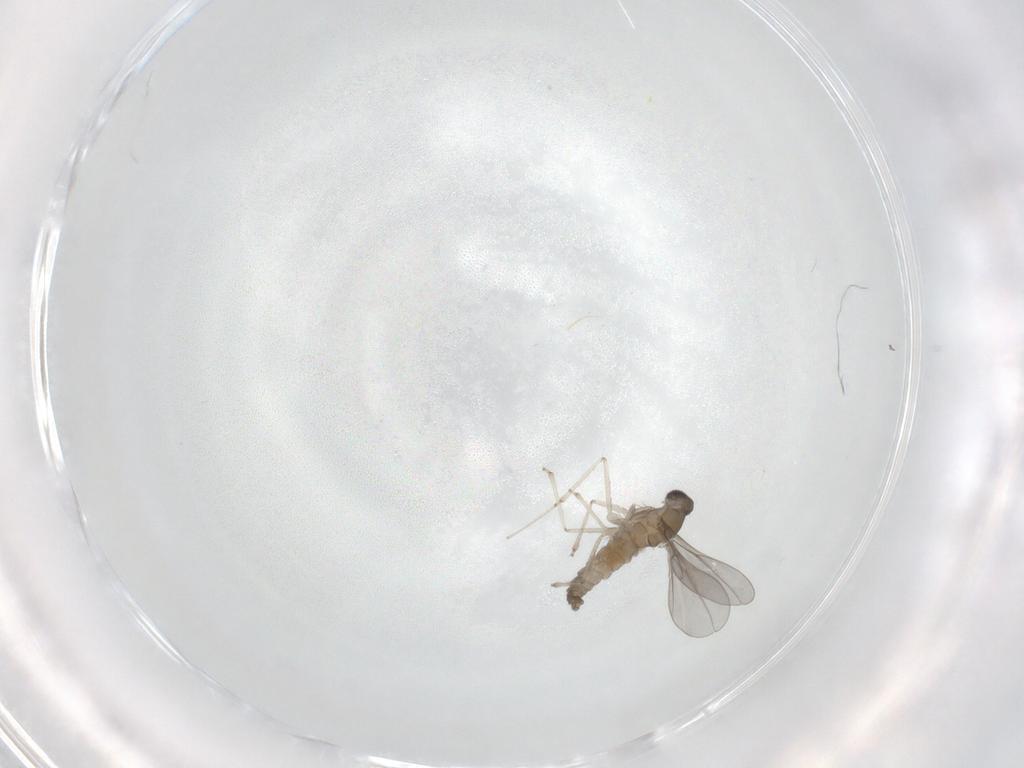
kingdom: Animalia
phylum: Arthropoda
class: Insecta
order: Diptera
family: Cecidomyiidae
